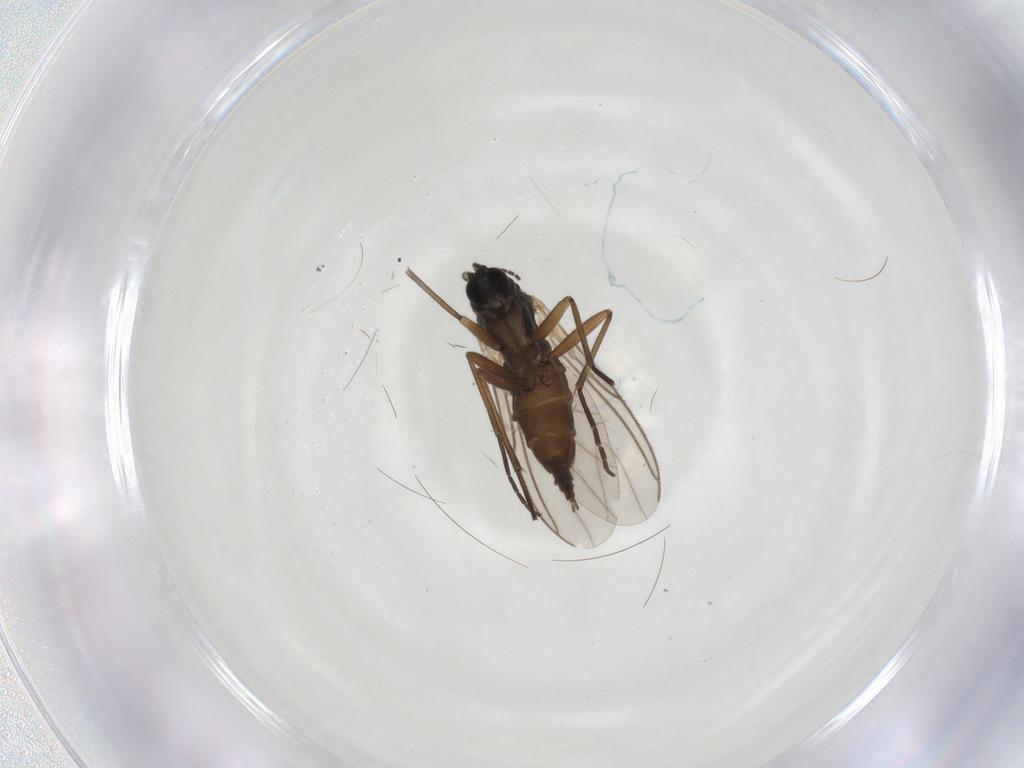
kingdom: Animalia
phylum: Arthropoda
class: Insecta
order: Diptera
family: Sciaridae
